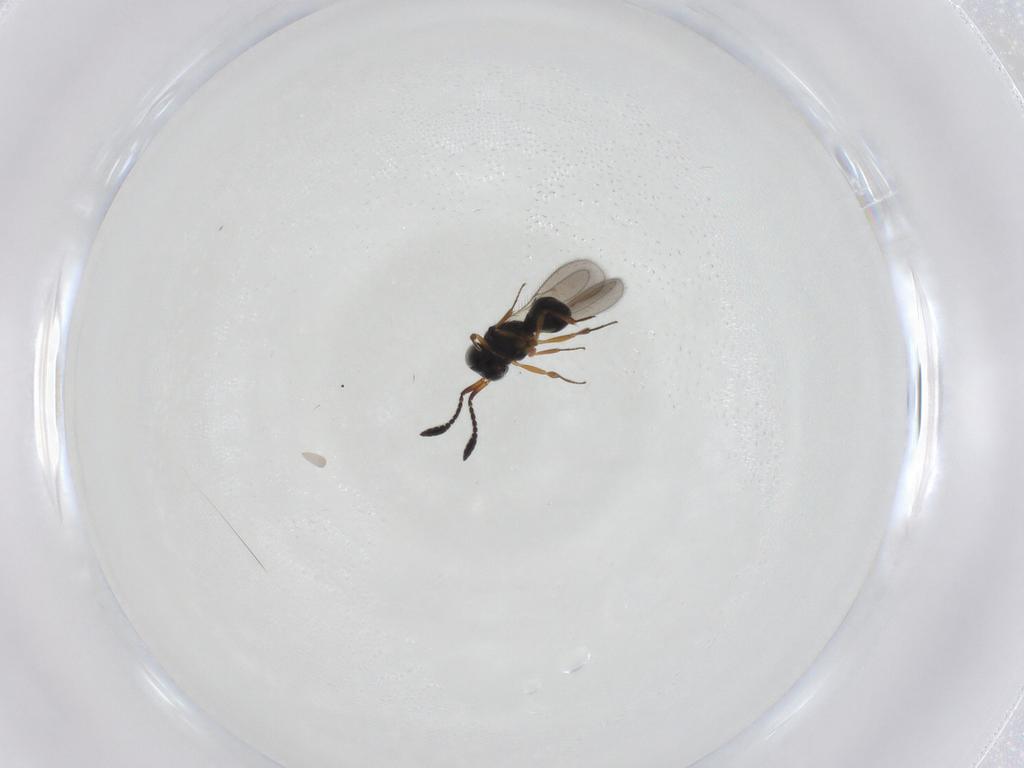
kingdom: Animalia
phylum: Arthropoda
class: Insecta
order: Hymenoptera
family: Scelionidae
